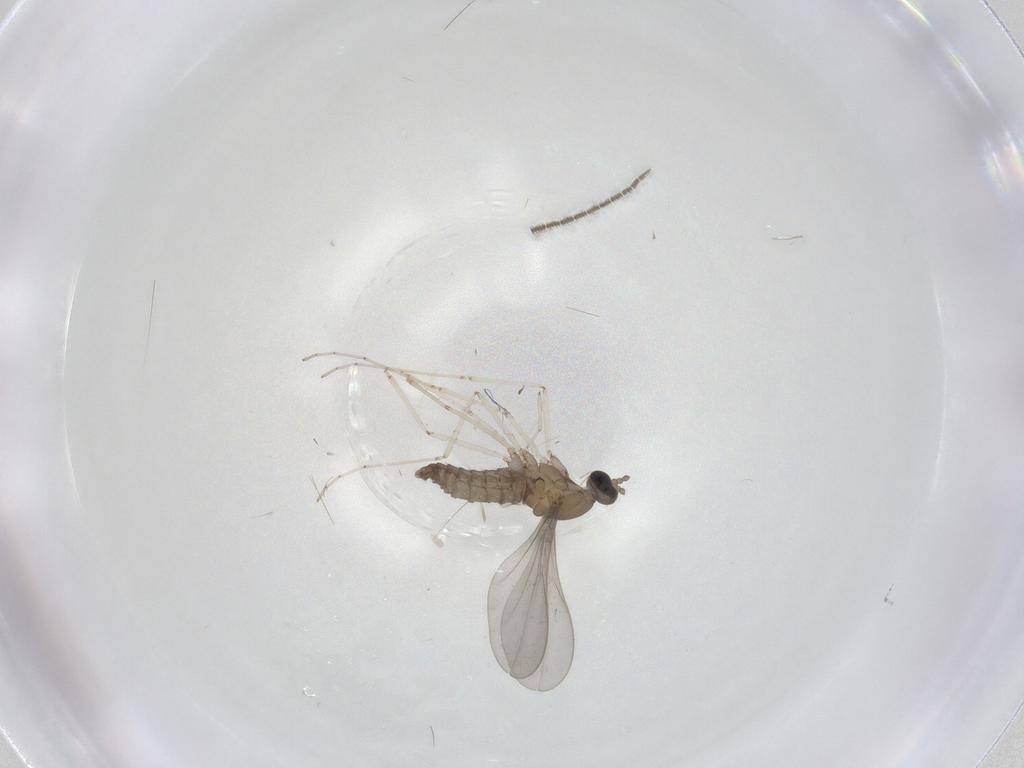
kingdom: Animalia
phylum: Arthropoda
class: Insecta
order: Diptera
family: Sciaridae
